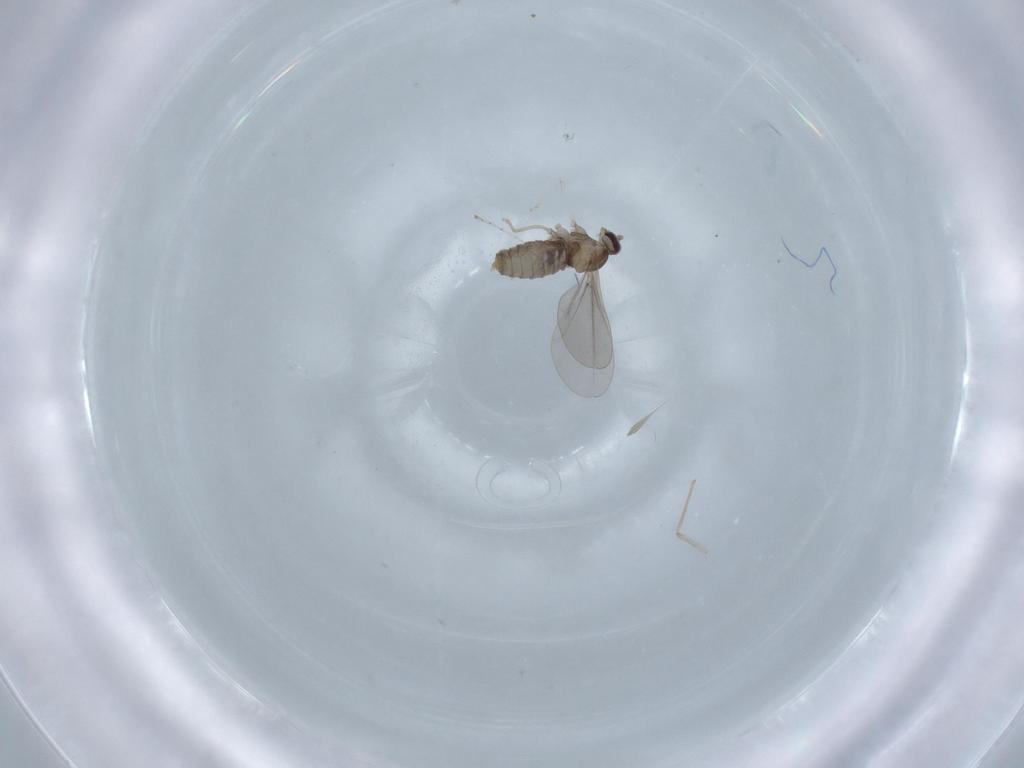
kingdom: Animalia
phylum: Arthropoda
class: Insecta
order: Diptera
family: Cecidomyiidae
